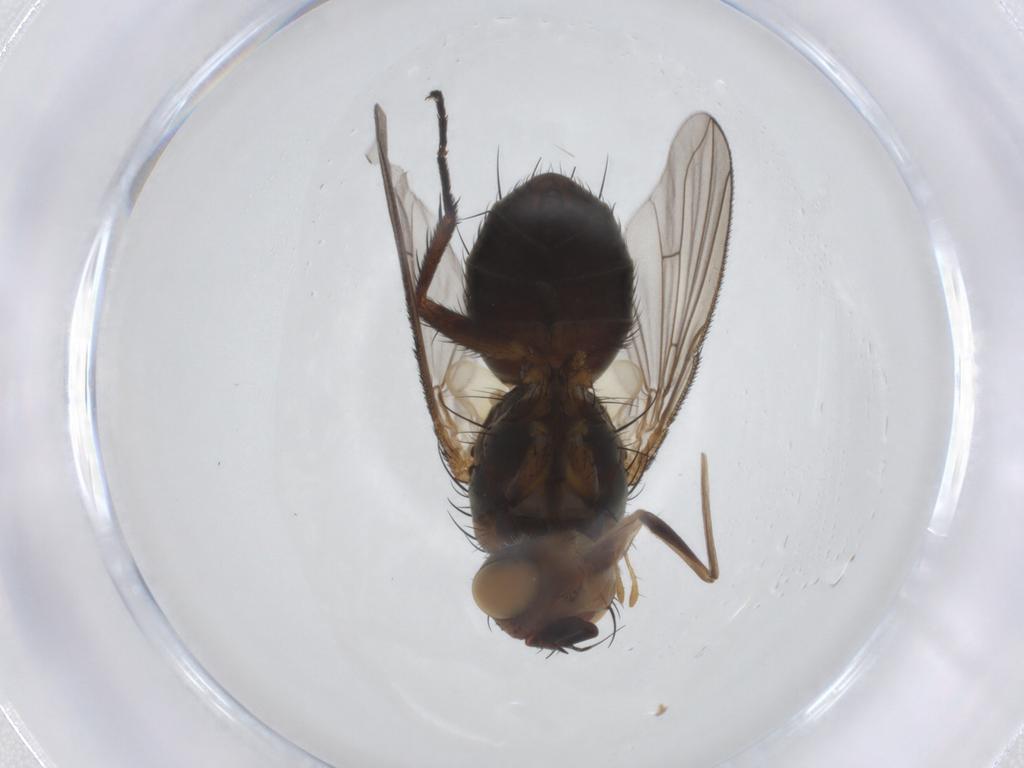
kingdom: Animalia
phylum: Arthropoda
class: Insecta
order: Diptera
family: Tachinidae
